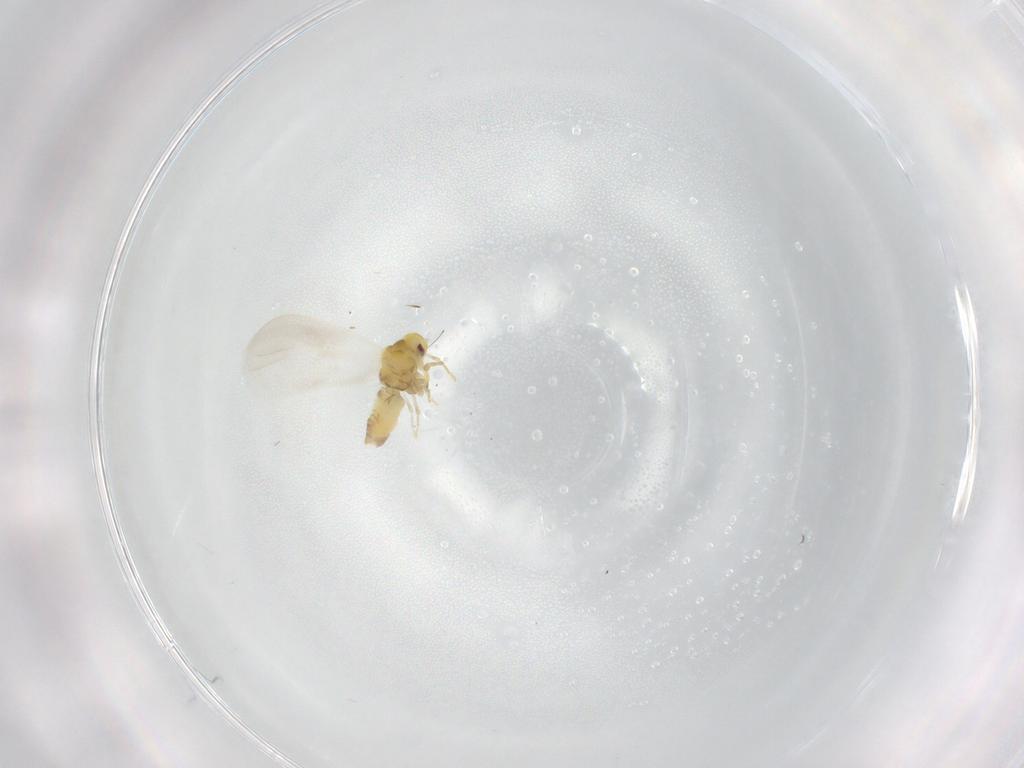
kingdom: Animalia
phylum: Arthropoda
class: Insecta
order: Hemiptera
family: Aleyrodidae
